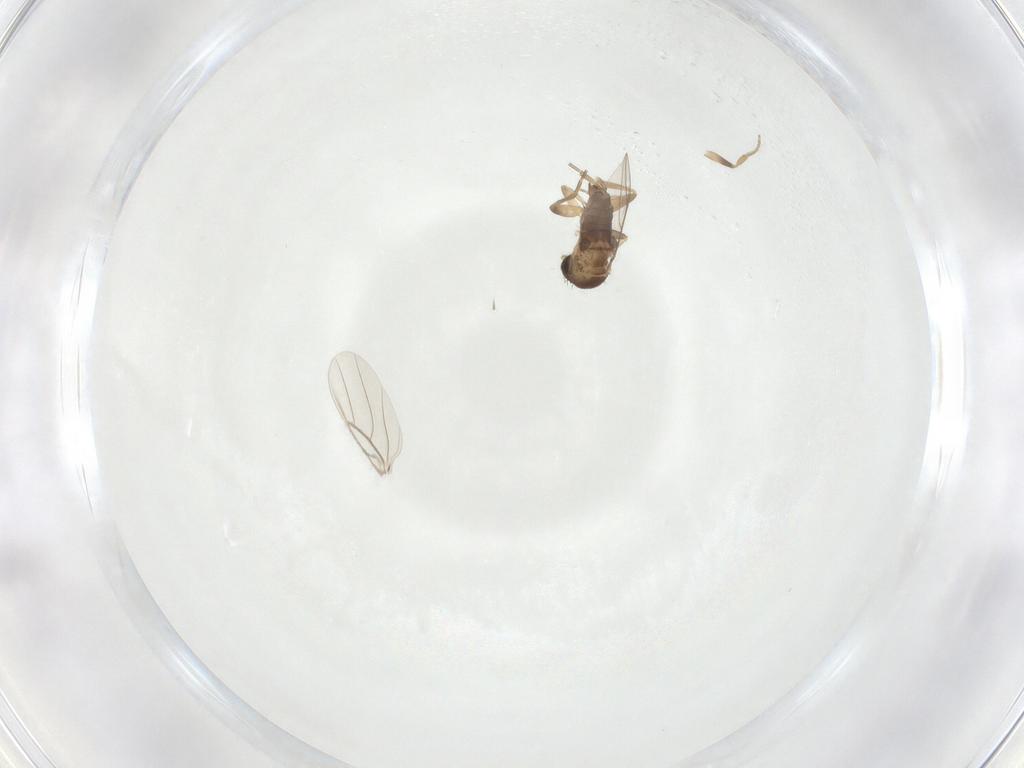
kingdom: Animalia
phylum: Arthropoda
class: Insecta
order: Diptera
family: Phoridae
